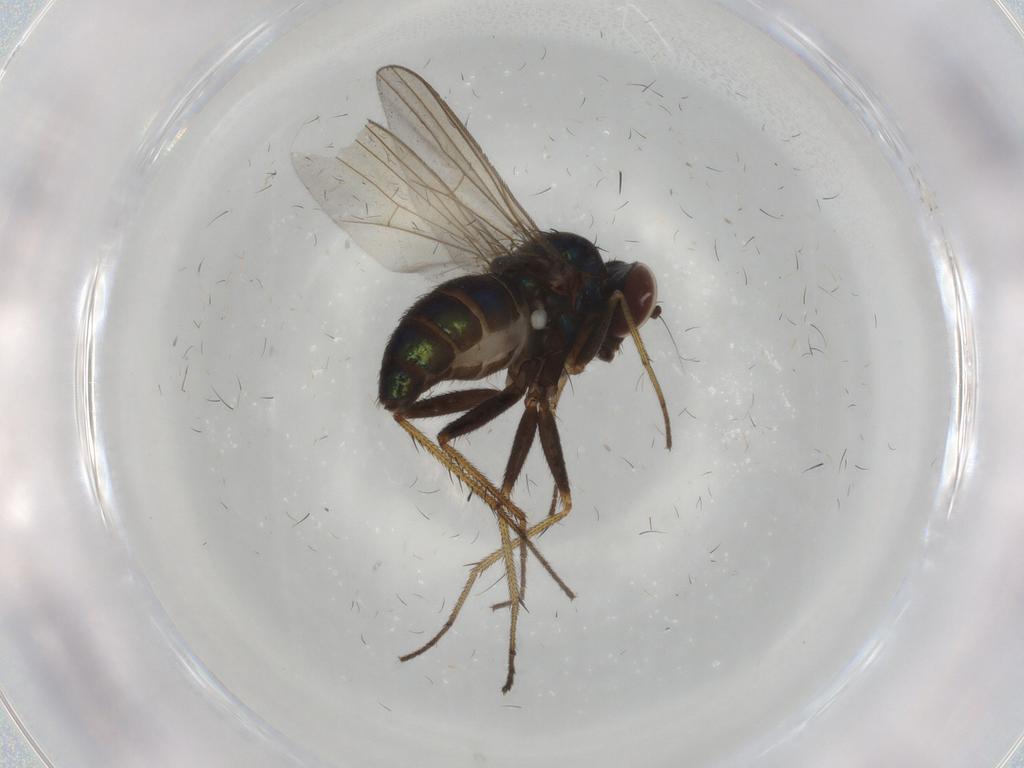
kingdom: Animalia
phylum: Arthropoda
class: Insecta
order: Diptera
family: Dolichopodidae
